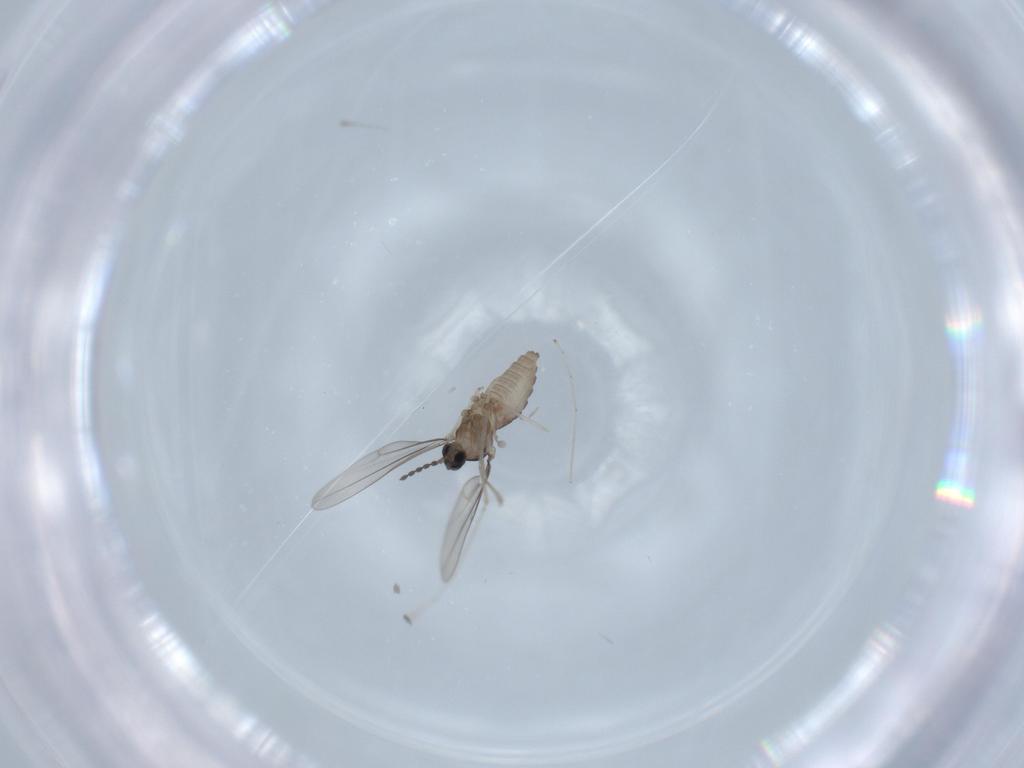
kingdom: Animalia
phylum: Arthropoda
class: Insecta
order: Diptera
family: Cecidomyiidae
